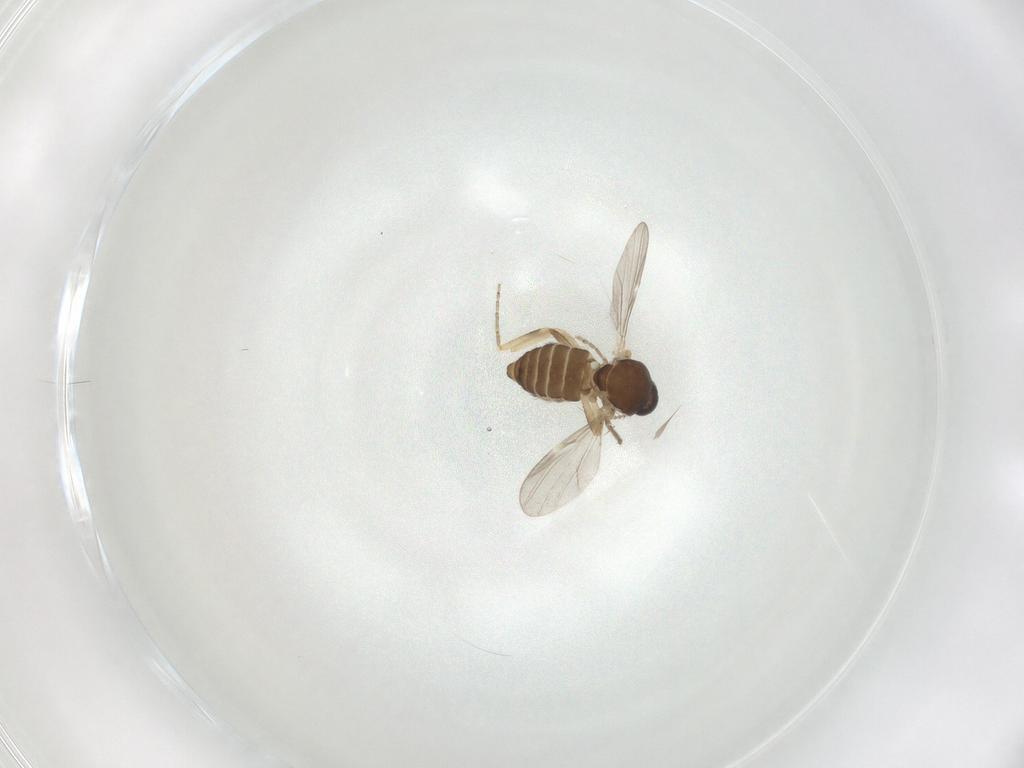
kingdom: Animalia
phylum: Arthropoda
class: Insecta
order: Diptera
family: Ceratopogonidae
